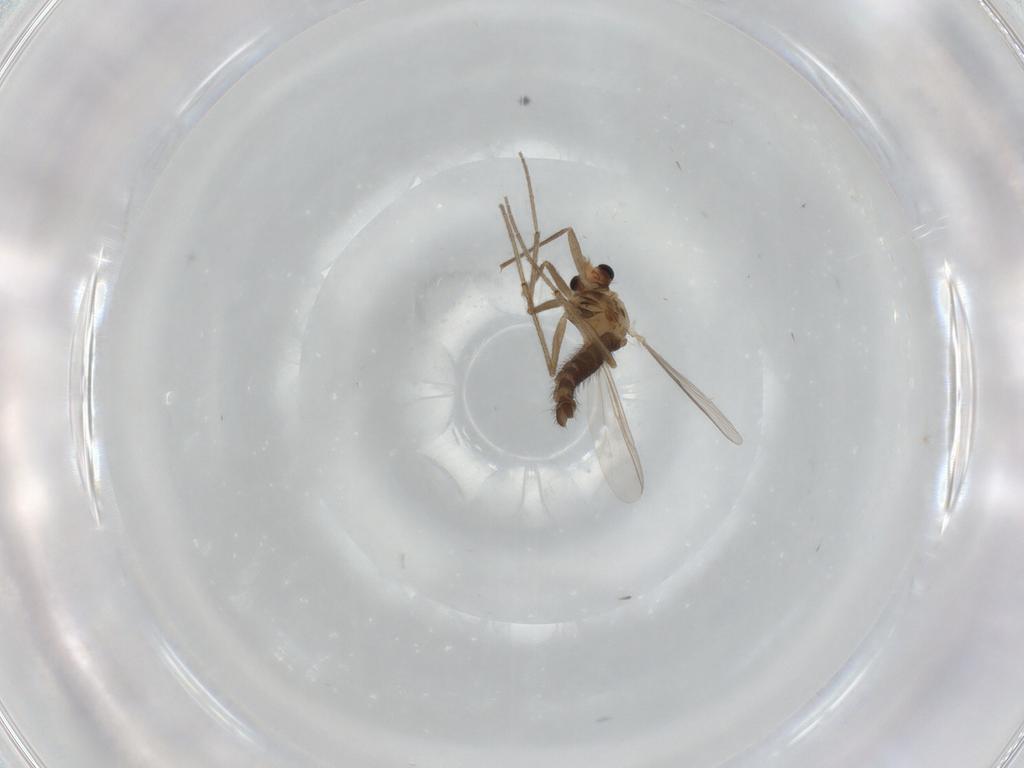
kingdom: Animalia
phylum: Arthropoda
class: Insecta
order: Diptera
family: Chironomidae
